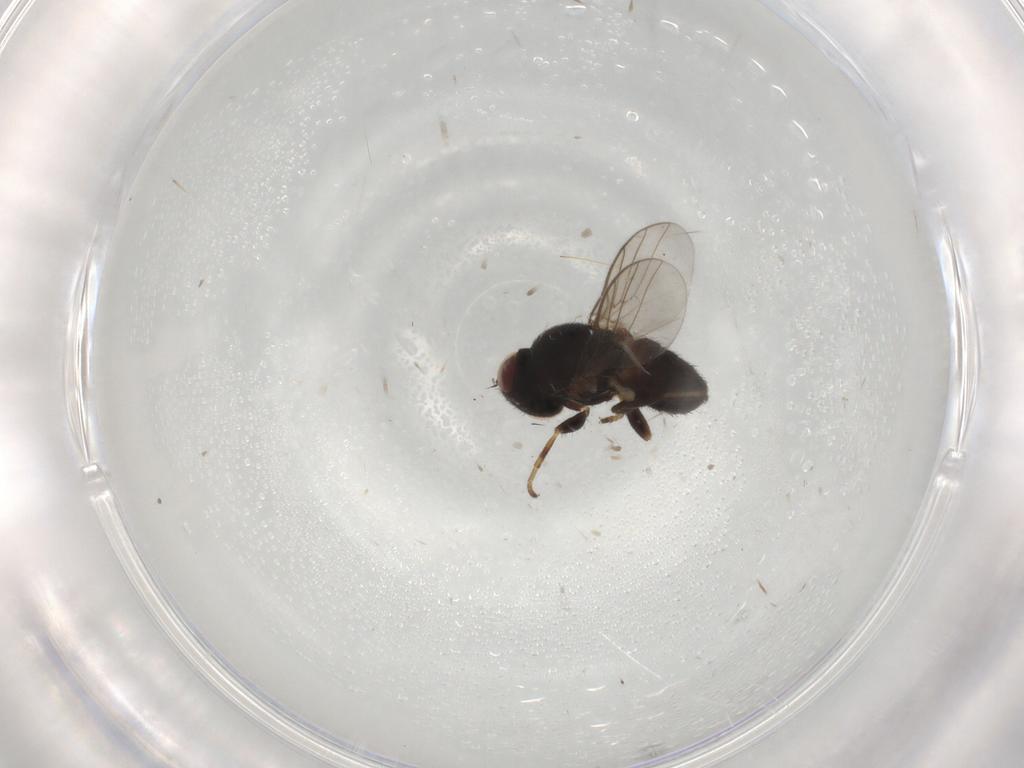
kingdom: Animalia
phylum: Arthropoda
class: Insecta
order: Diptera
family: Chloropidae
